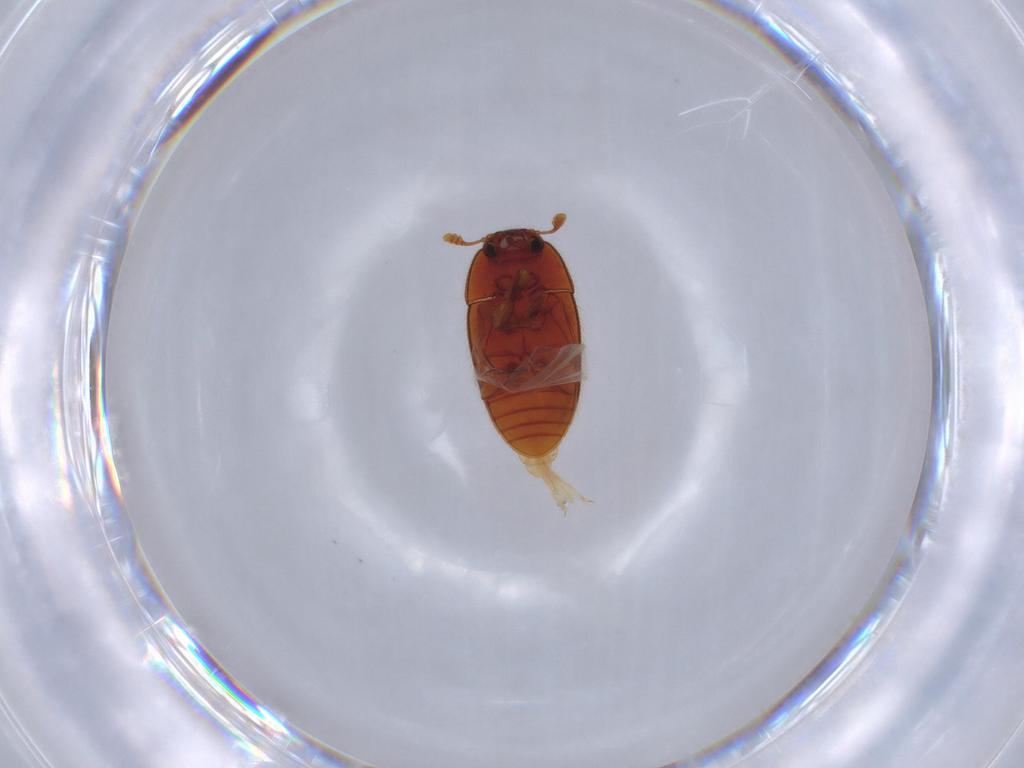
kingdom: Animalia
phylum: Arthropoda
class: Insecta
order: Coleoptera
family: Biphyllidae
